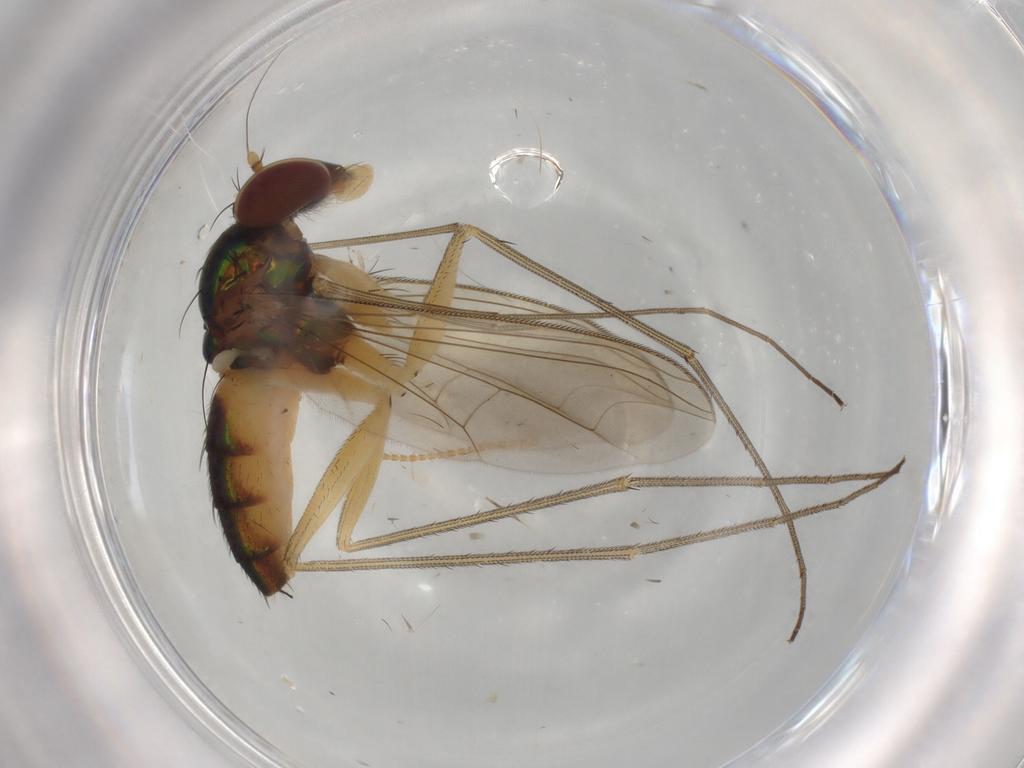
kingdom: Animalia
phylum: Arthropoda
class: Insecta
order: Diptera
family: Dolichopodidae
